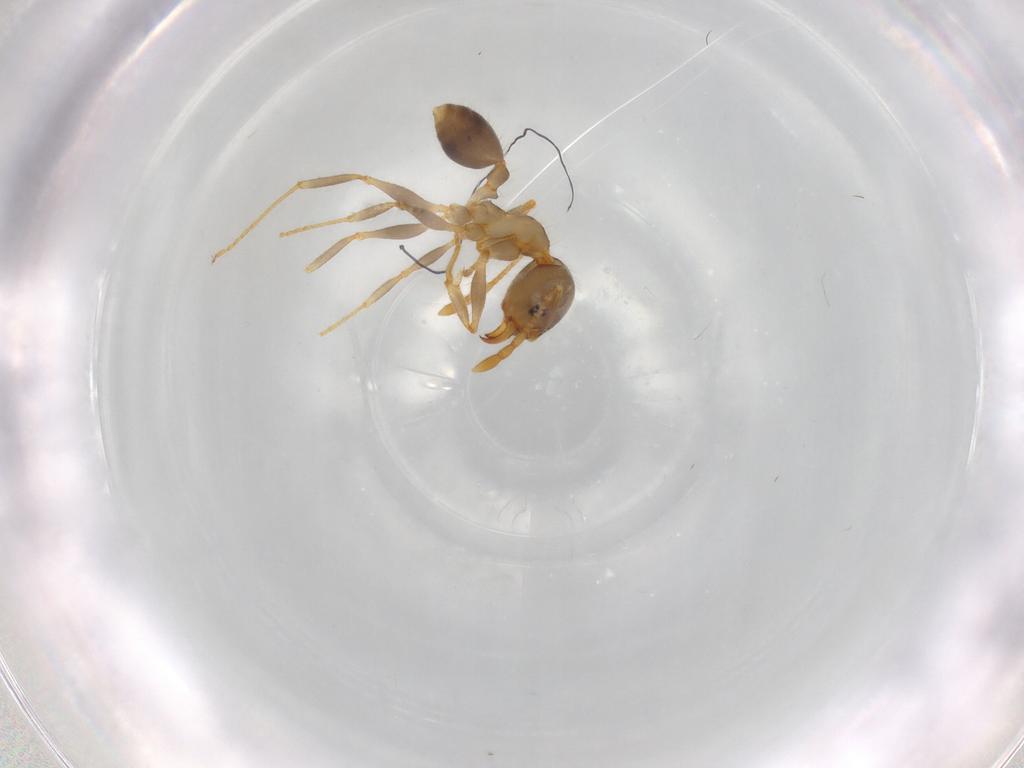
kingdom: Animalia
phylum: Arthropoda
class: Insecta
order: Hymenoptera
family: Formicidae
